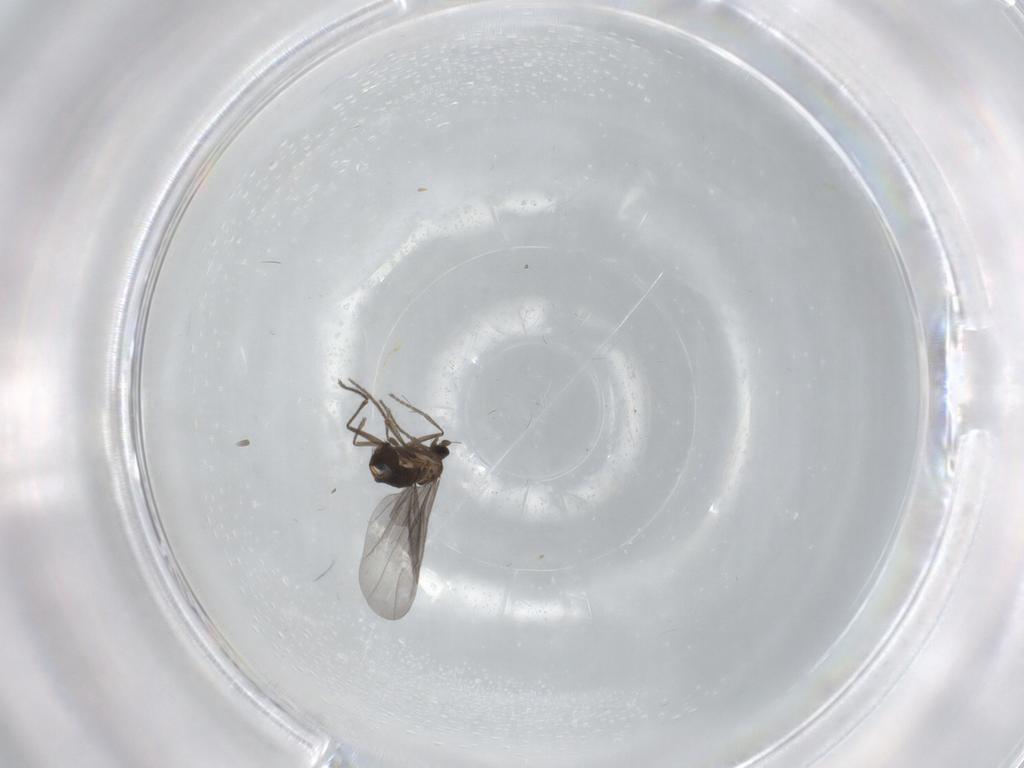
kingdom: Animalia
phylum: Arthropoda
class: Insecta
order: Diptera
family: Phoridae
